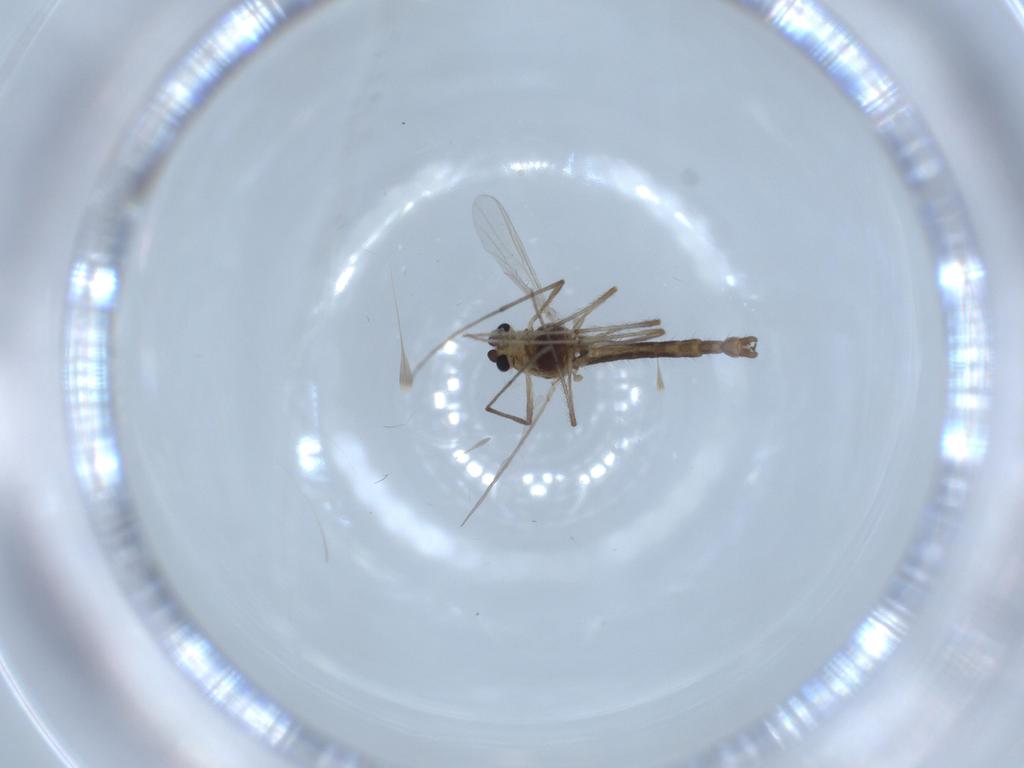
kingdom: Animalia
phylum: Arthropoda
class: Insecta
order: Diptera
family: Chironomidae
